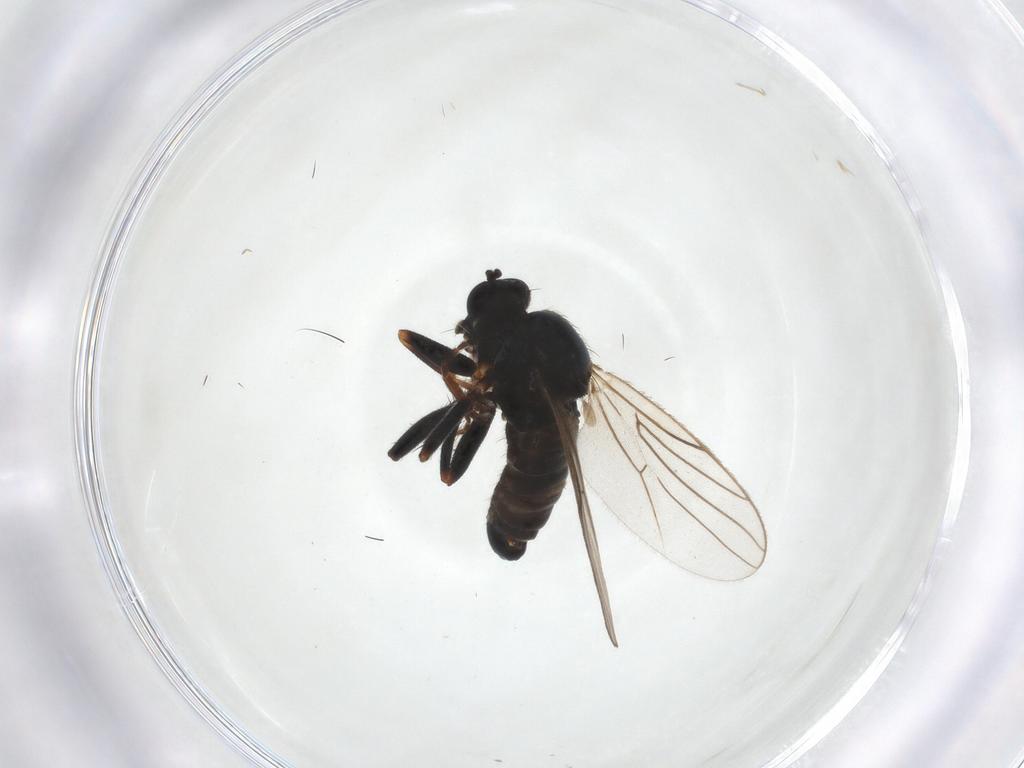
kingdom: Animalia
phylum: Arthropoda
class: Insecta
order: Diptera
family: Hybotidae
